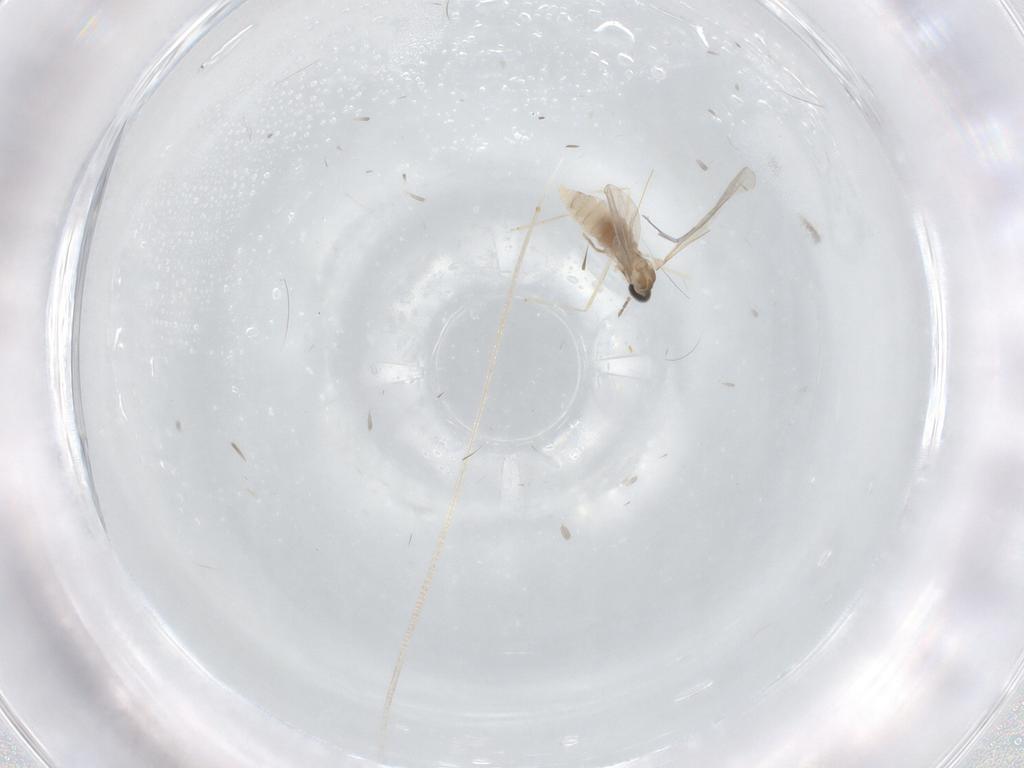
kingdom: Animalia
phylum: Arthropoda
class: Insecta
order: Diptera
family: Cecidomyiidae
